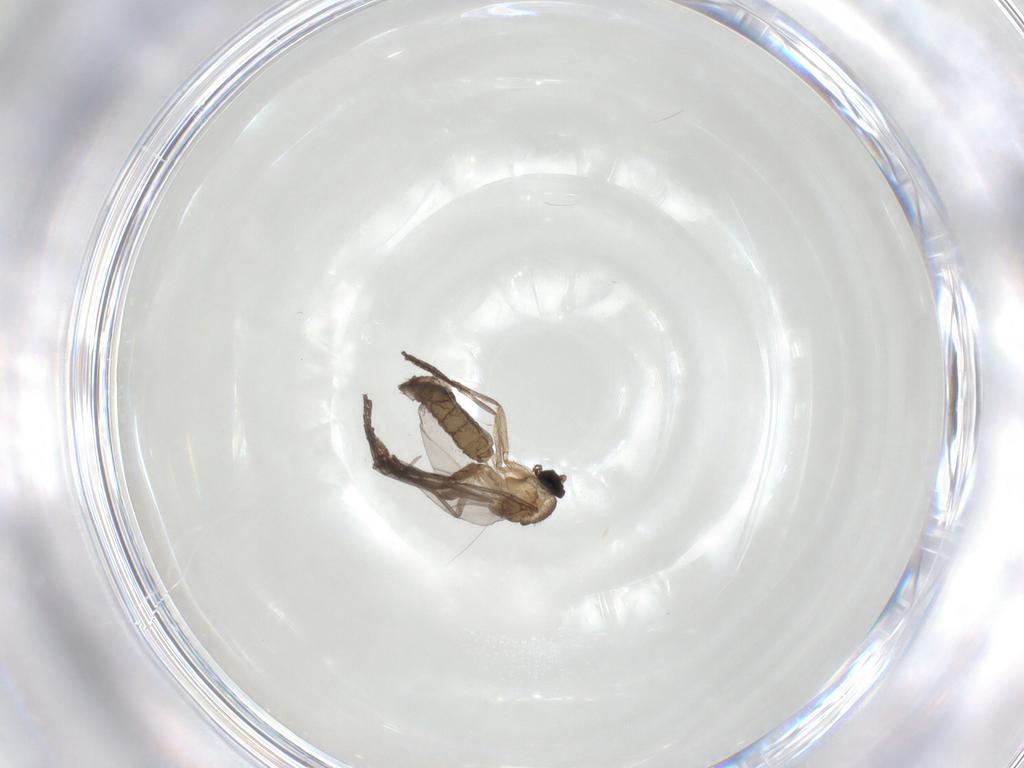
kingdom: Animalia
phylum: Arthropoda
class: Insecta
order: Diptera
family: Sciaridae
